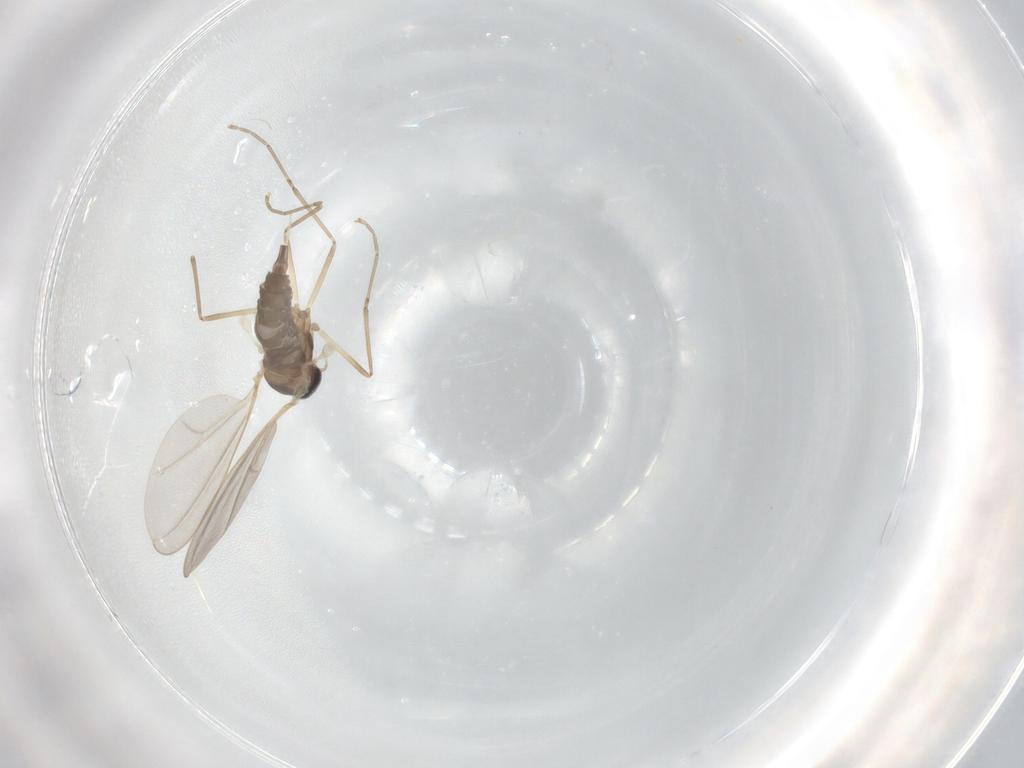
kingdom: Animalia
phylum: Arthropoda
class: Insecta
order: Diptera
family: Cecidomyiidae
